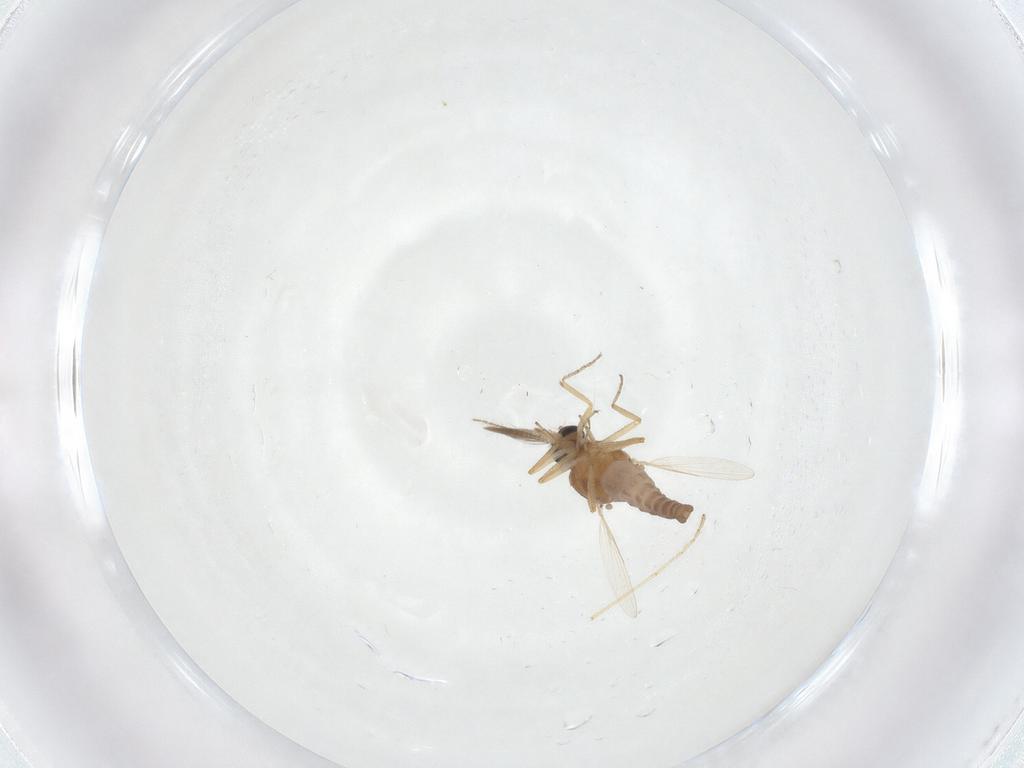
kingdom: Animalia
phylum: Arthropoda
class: Insecta
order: Diptera
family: Ceratopogonidae
